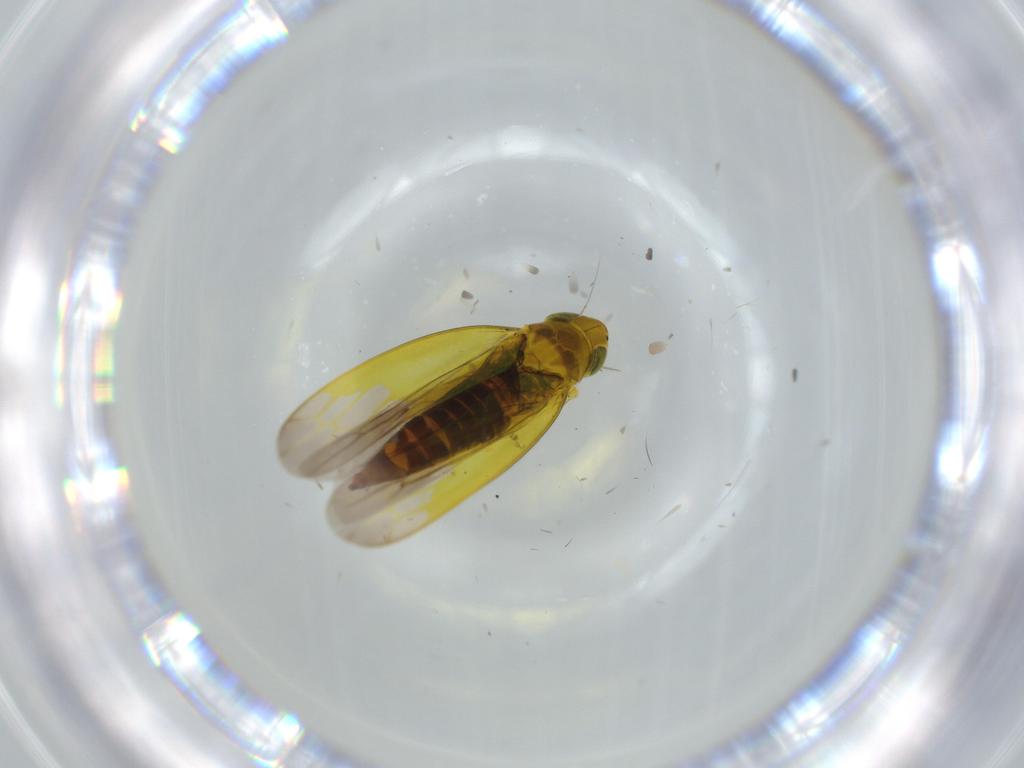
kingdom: Animalia
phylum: Arthropoda
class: Insecta
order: Hemiptera
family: Cicadellidae
